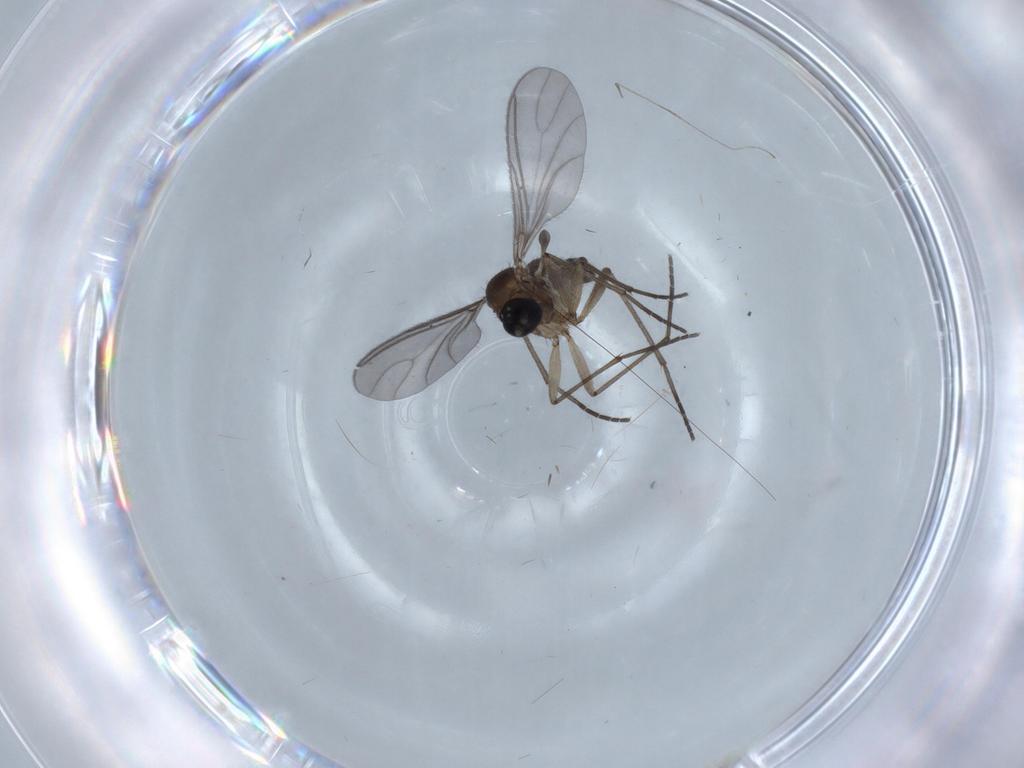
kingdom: Animalia
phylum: Arthropoda
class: Insecta
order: Diptera
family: Sciaridae
